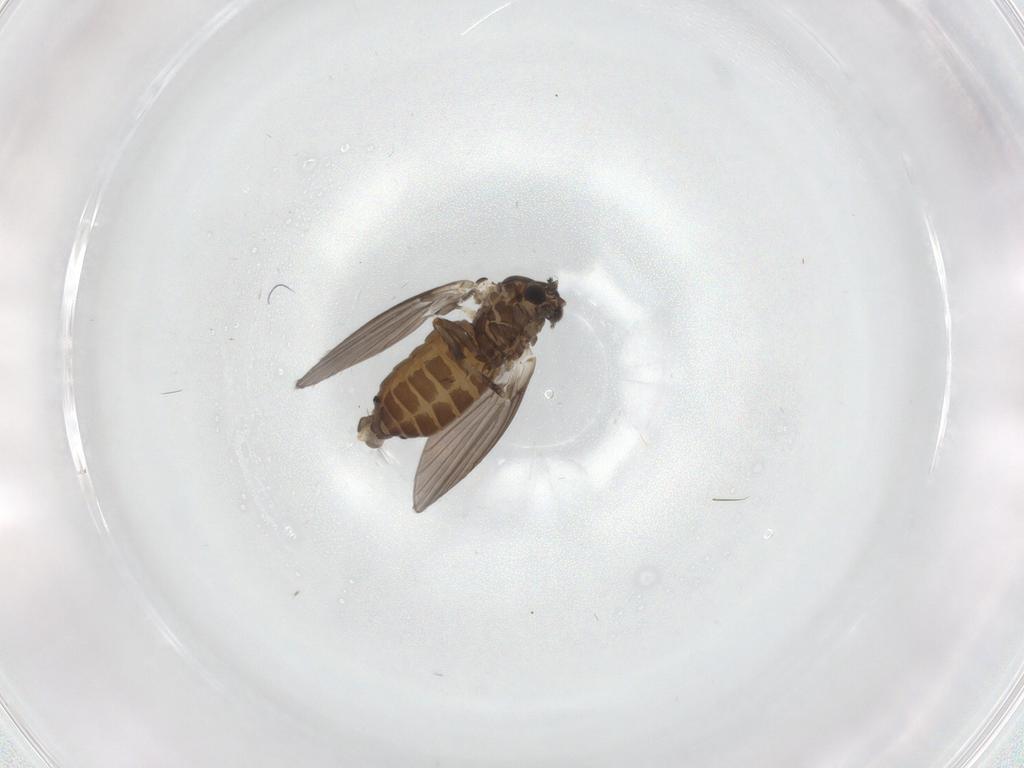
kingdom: Animalia
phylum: Arthropoda
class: Insecta
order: Diptera
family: Psychodidae
